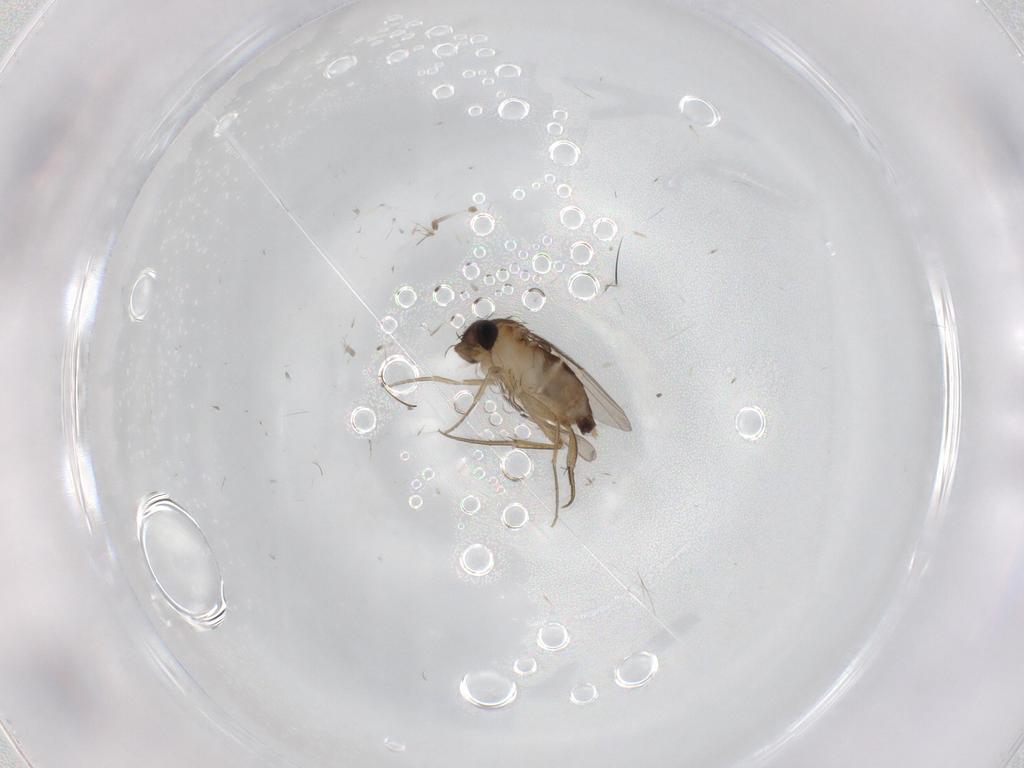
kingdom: Animalia
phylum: Arthropoda
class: Insecta
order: Diptera
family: Phoridae
